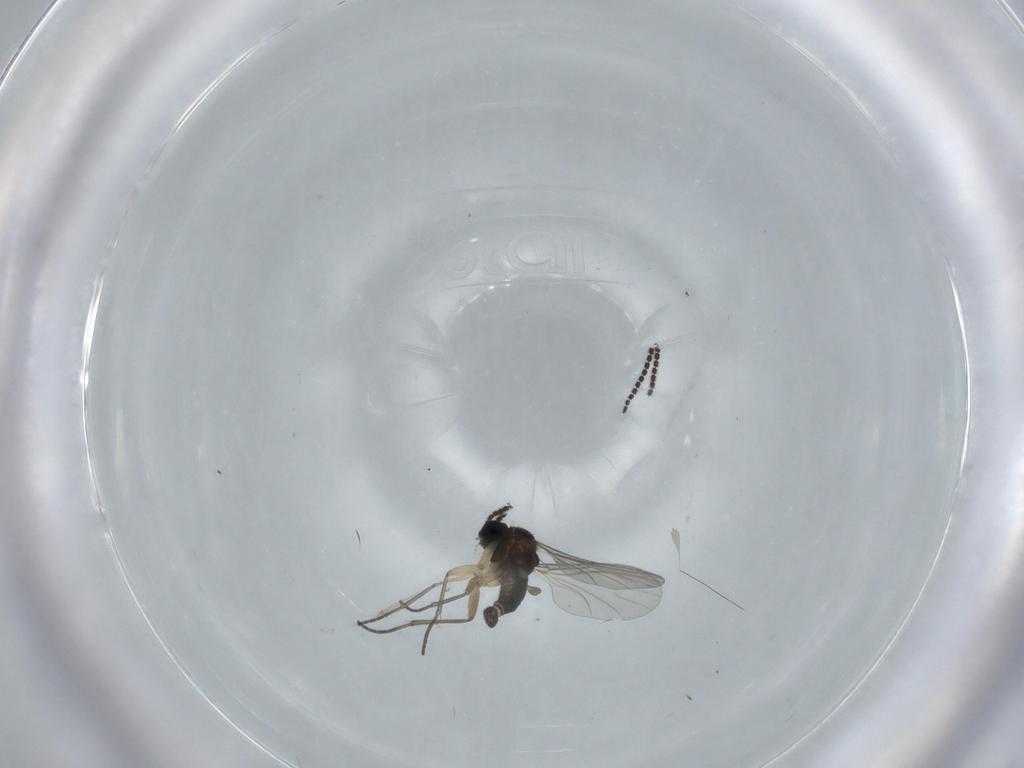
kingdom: Animalia
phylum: Arthropoda
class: Insecta
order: Diptera
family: Sciaridae
